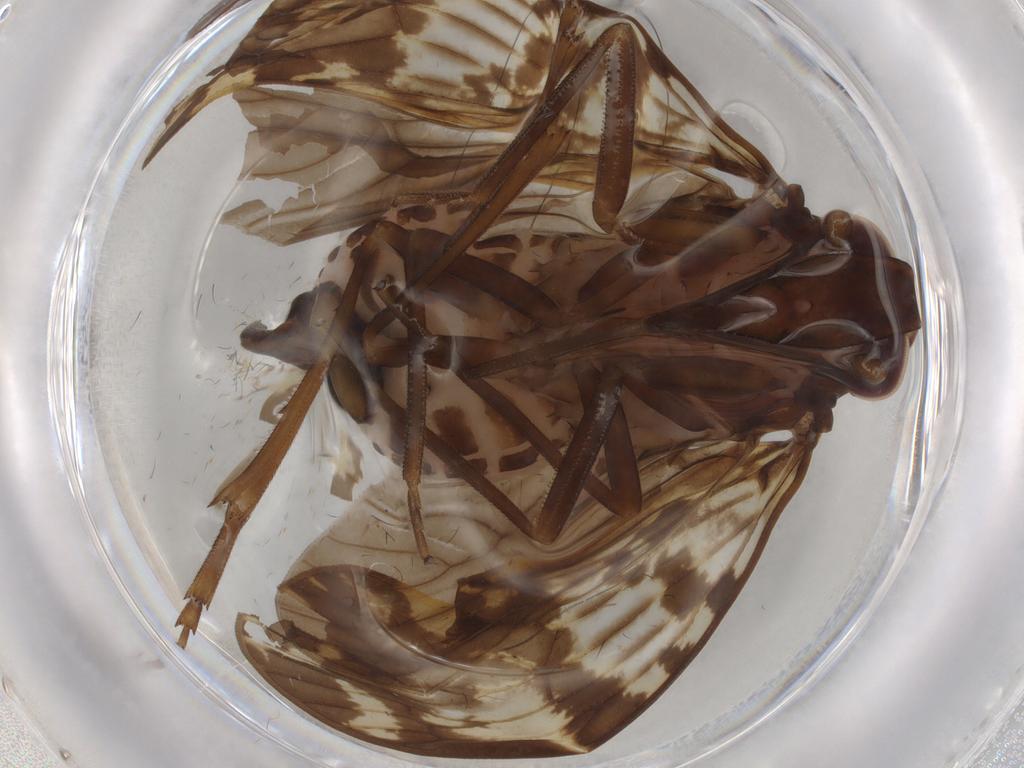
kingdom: Animalia
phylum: Arthropoda
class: Insecta
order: Hemiptera
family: Cixiidae
